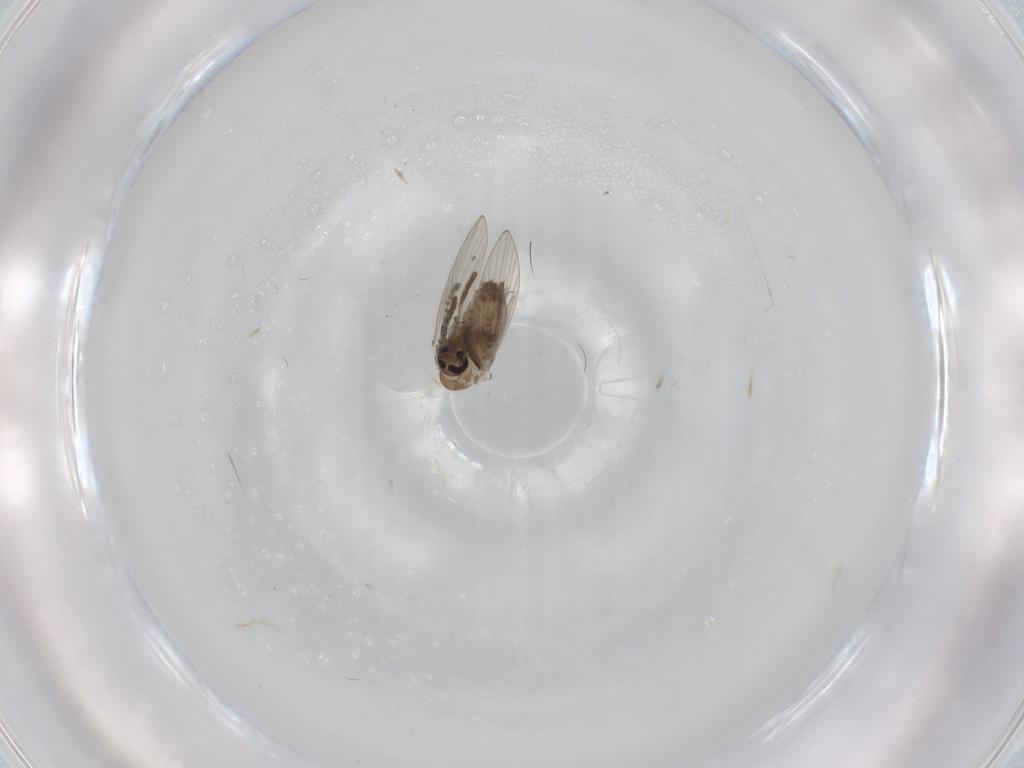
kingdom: Animalia
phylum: Arthropoda
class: Insecta
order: Diptera
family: Psychodidae
